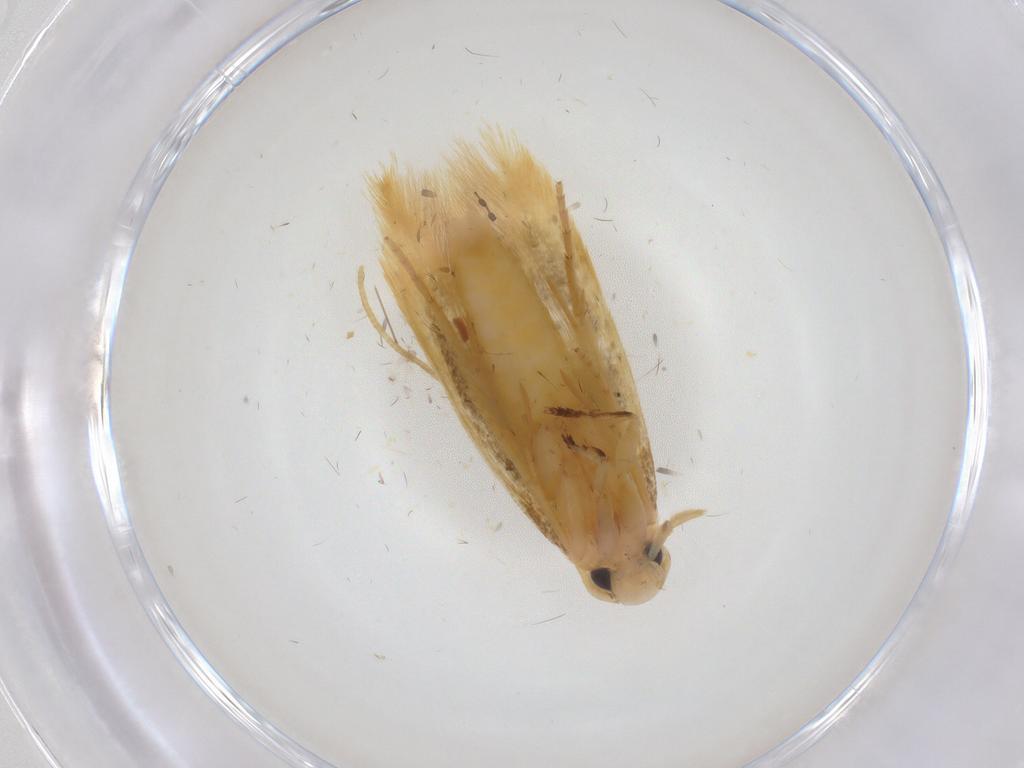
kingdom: Animalia
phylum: Arthropoda
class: Insecta
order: Lepidoptera
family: Tineidae
